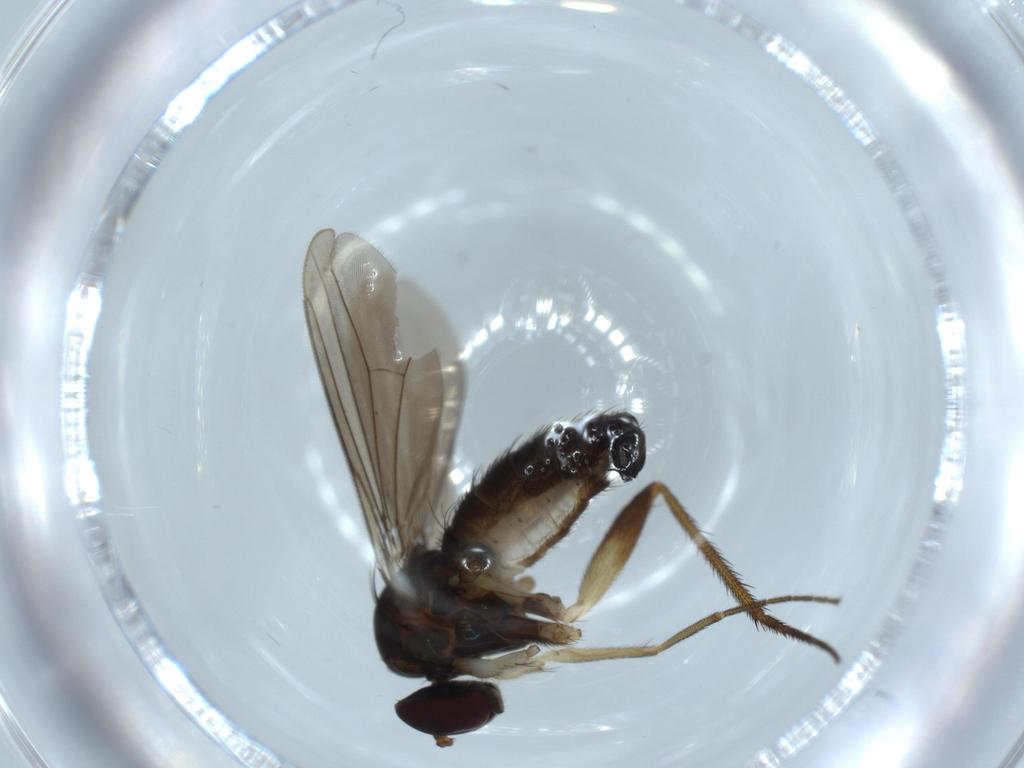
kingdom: Animalia
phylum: Arthropoda
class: Insecta
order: Diptera
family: Dolichopodidae
